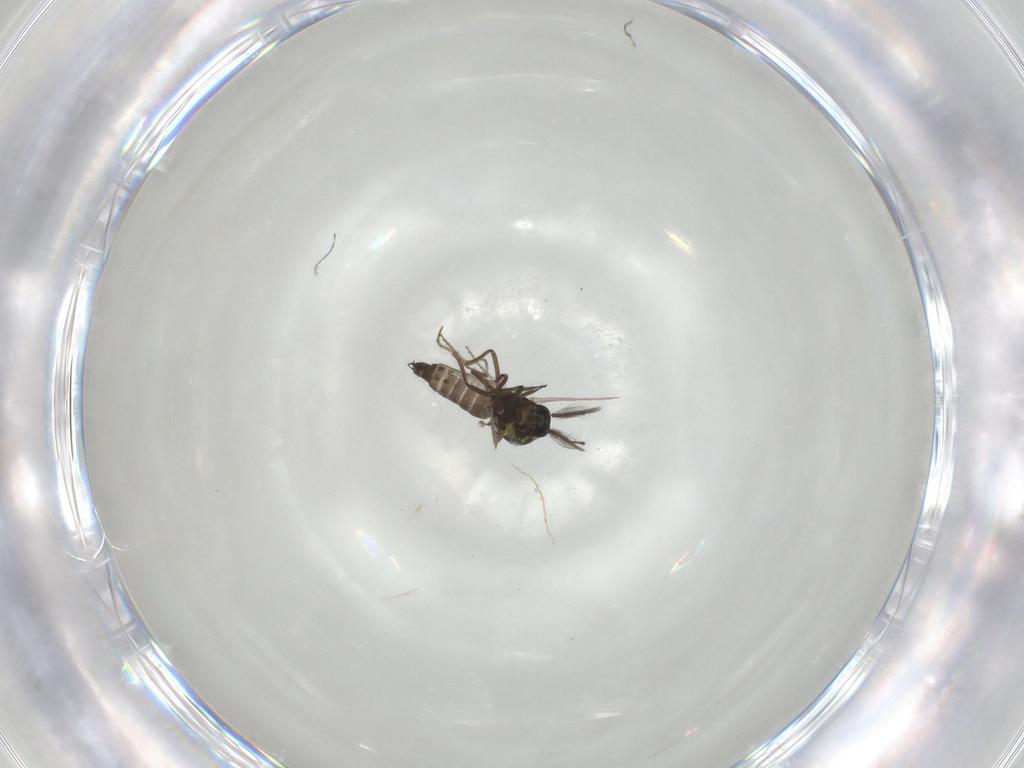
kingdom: Animalia
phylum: Arthropoda
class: Insecta
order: Diptera
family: Ceratopogonidae
